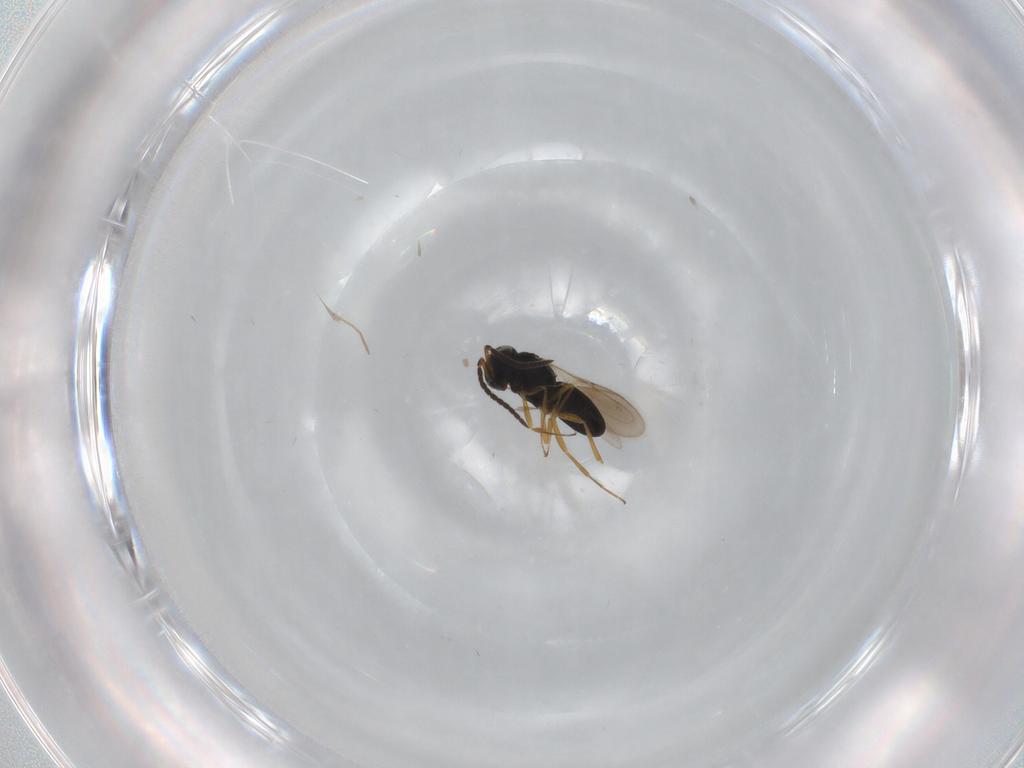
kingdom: Animalia
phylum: Arthropoda
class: Insecta
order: Hymenoptera
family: Scelionidae
